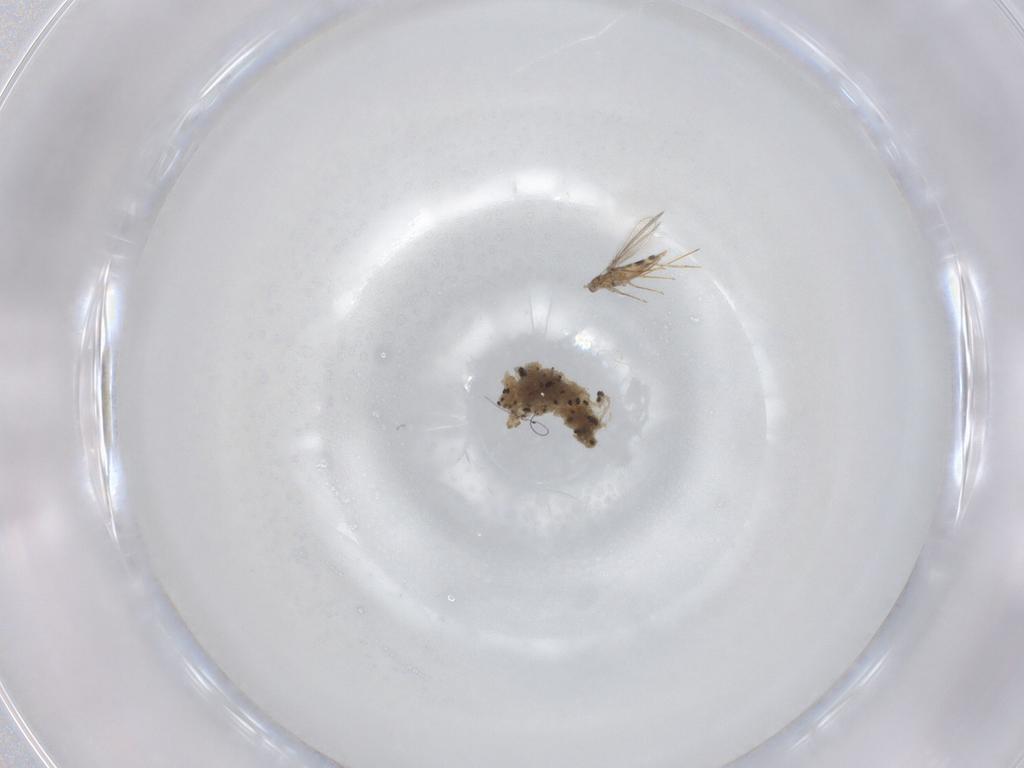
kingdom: Animalia
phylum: Arthropoda
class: Insecta
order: Hymenoptera
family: Mymaridae
